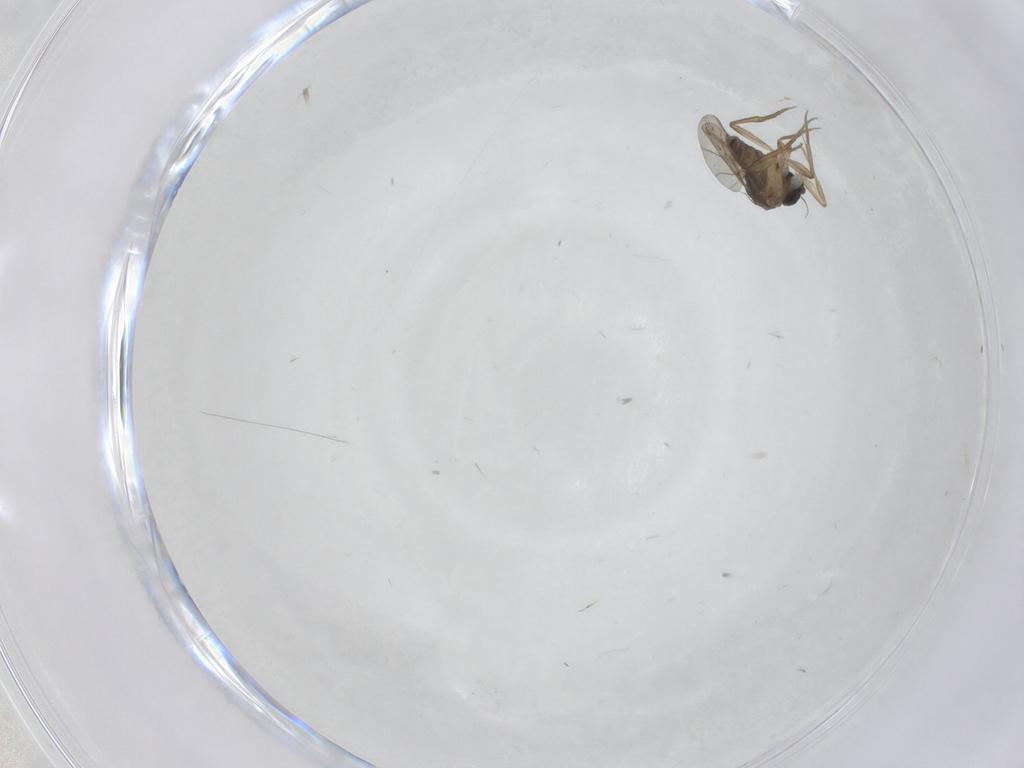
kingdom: Animalia
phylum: Arthropoda
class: Insecta
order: Diptera
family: Phoridae
